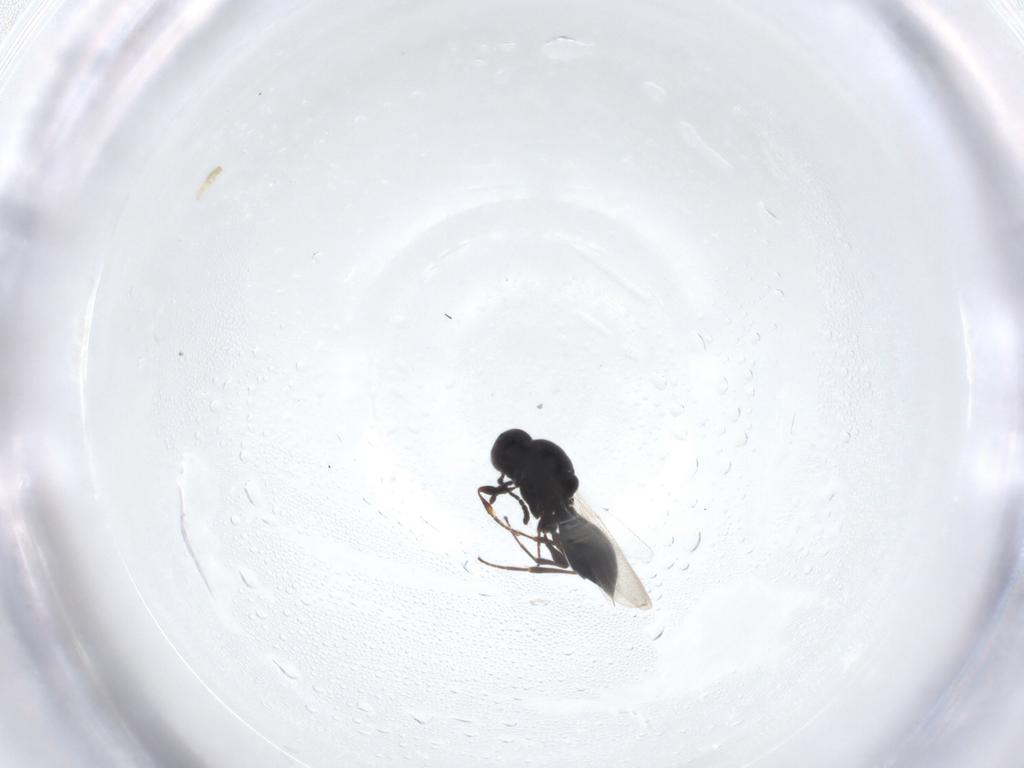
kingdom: Animalia
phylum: Arthropoda
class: Insecta
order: Hymenoptera
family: Platygastridae
